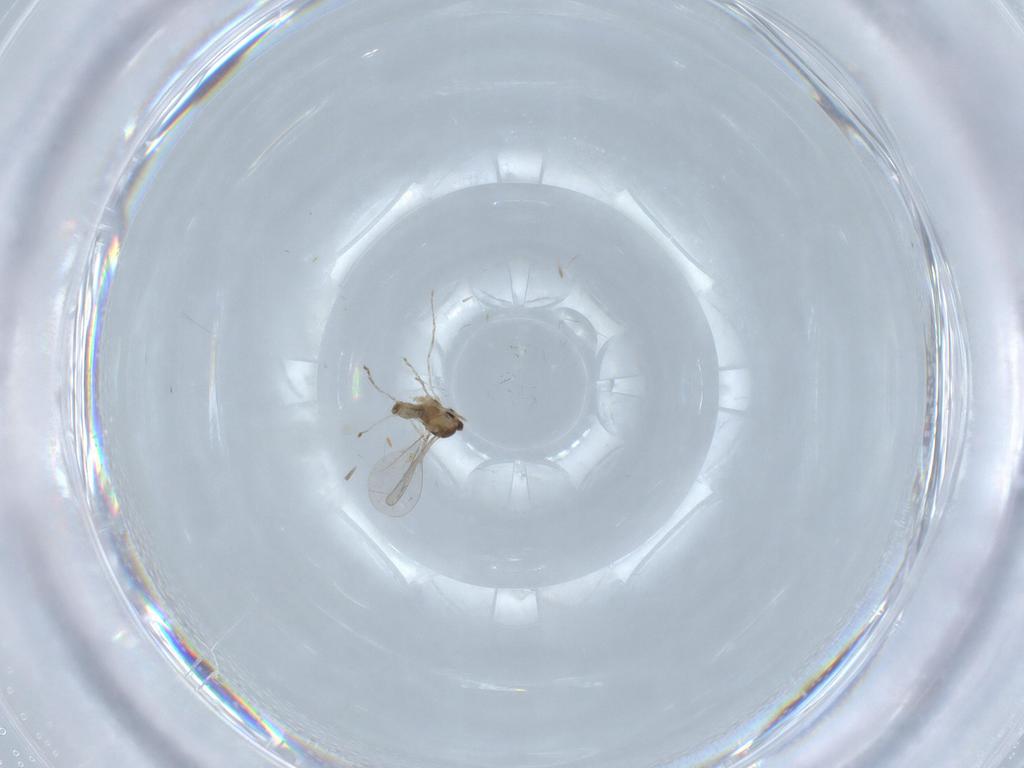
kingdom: Animalia
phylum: Arthropoda
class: Insecta
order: Diptera
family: Cecidomyiidae
